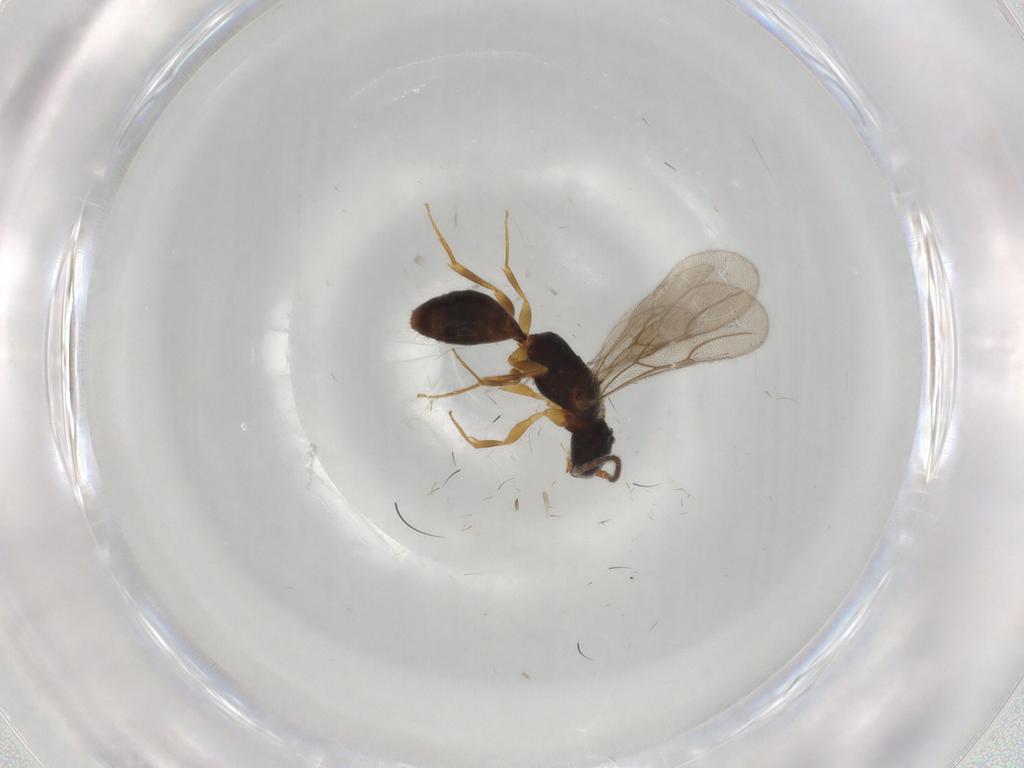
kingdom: Animalia
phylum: Arthropoda
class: Insecta
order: Hymenoptera
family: Bethylidae
